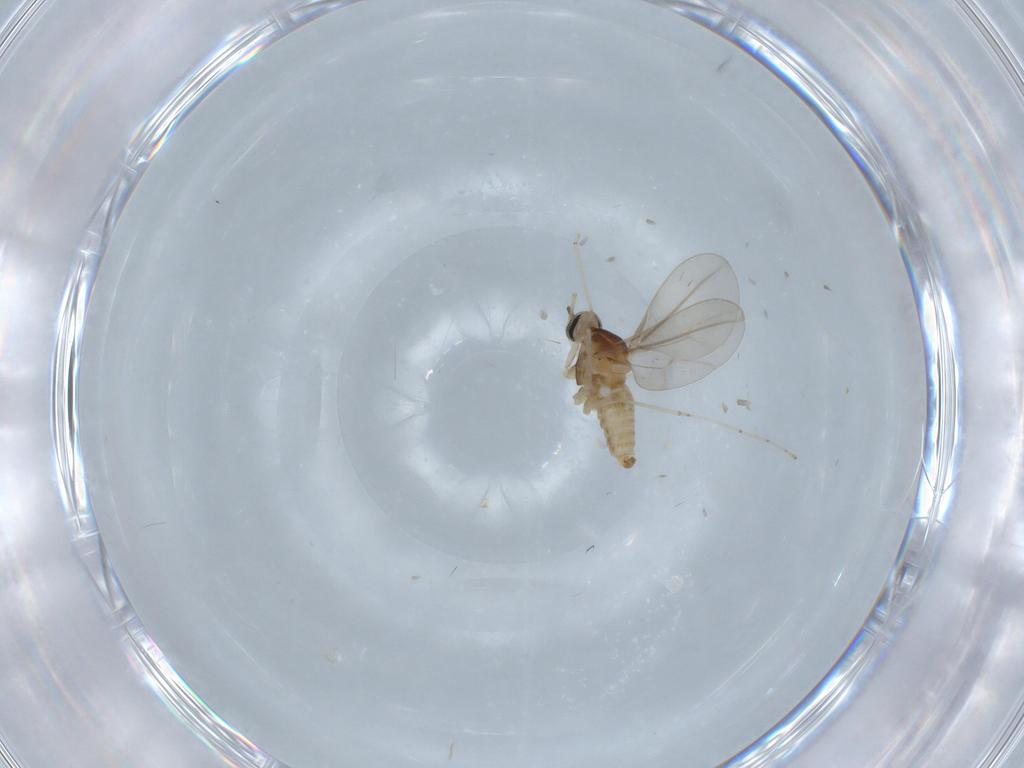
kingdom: Animalia
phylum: Arthropoda
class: Insecta
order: Diptera
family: Cecidomyiidae
